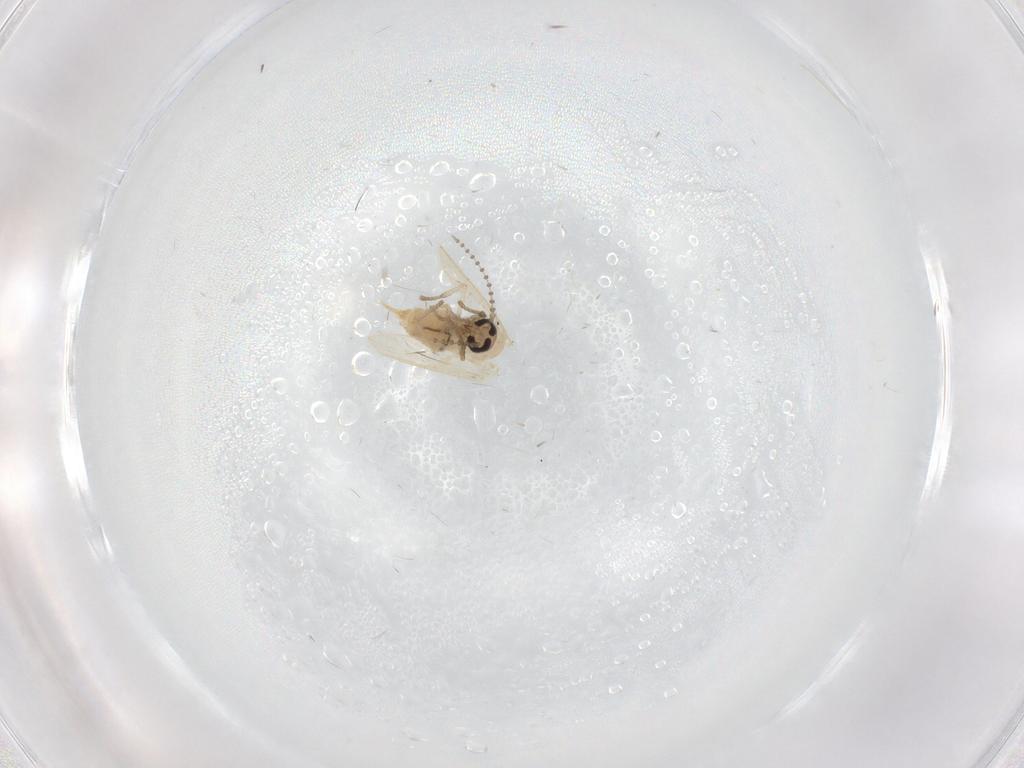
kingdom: Animalia
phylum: Arthropoda
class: Insecta
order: Diptera
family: Psychodidae
